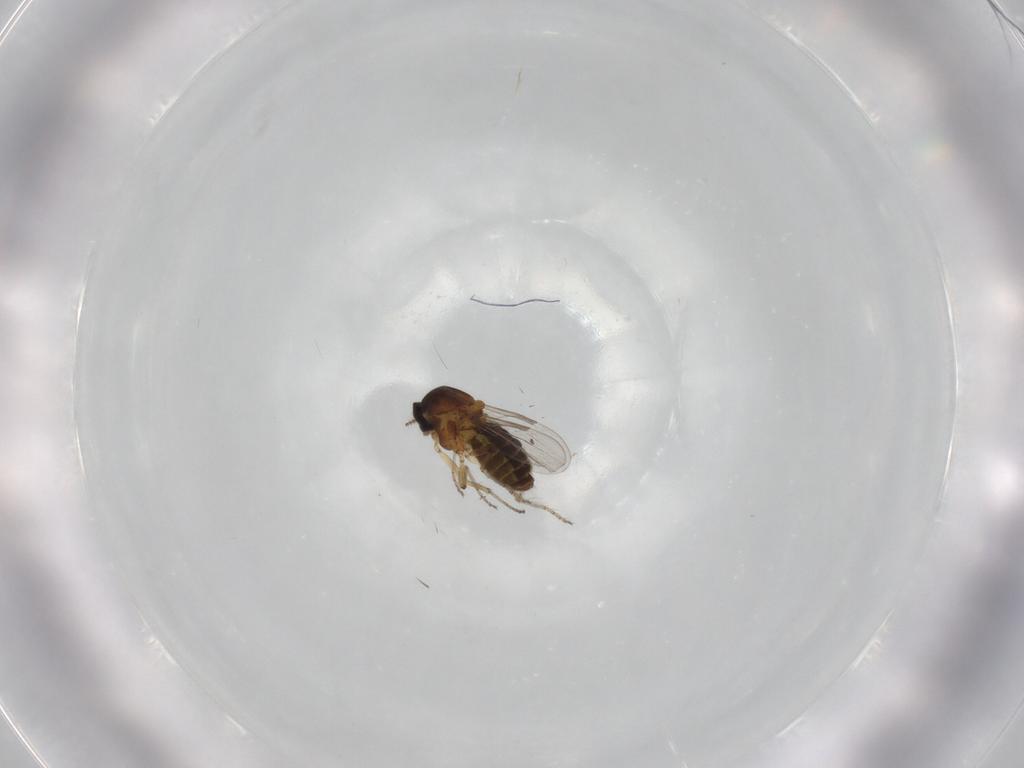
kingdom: Animalia
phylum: Arthropoda
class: Insecta
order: Diptera
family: Ceratopogonidae
